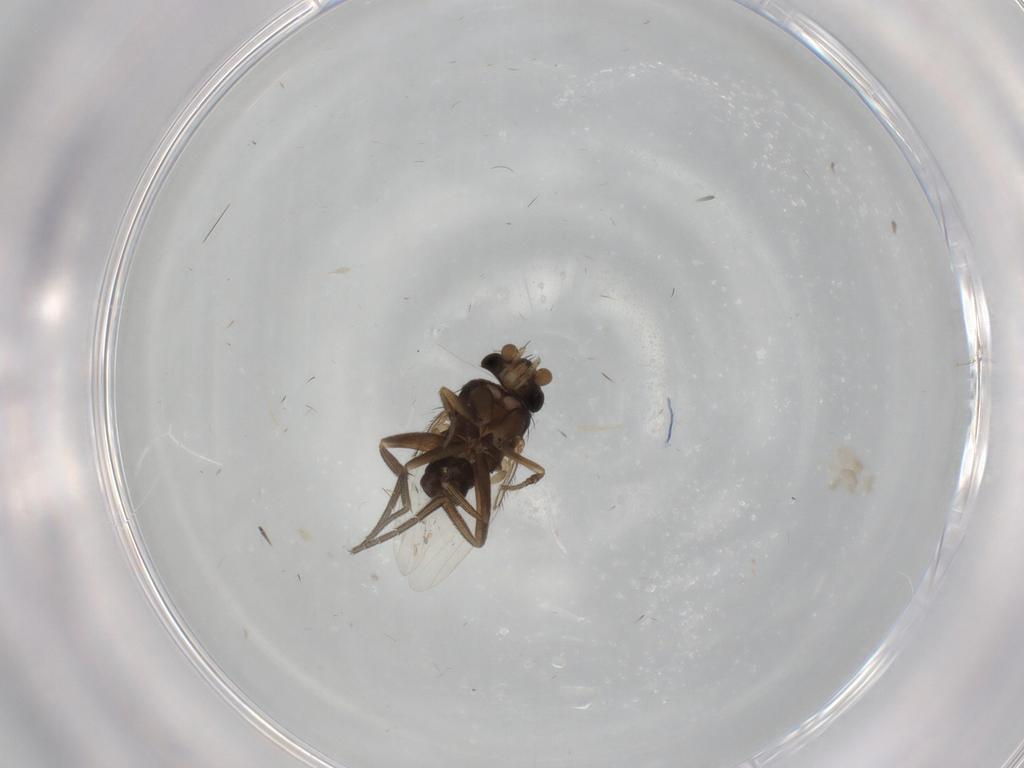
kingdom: Animalia
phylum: Arthropoda
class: Insecta
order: Diptera
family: Phoridae
